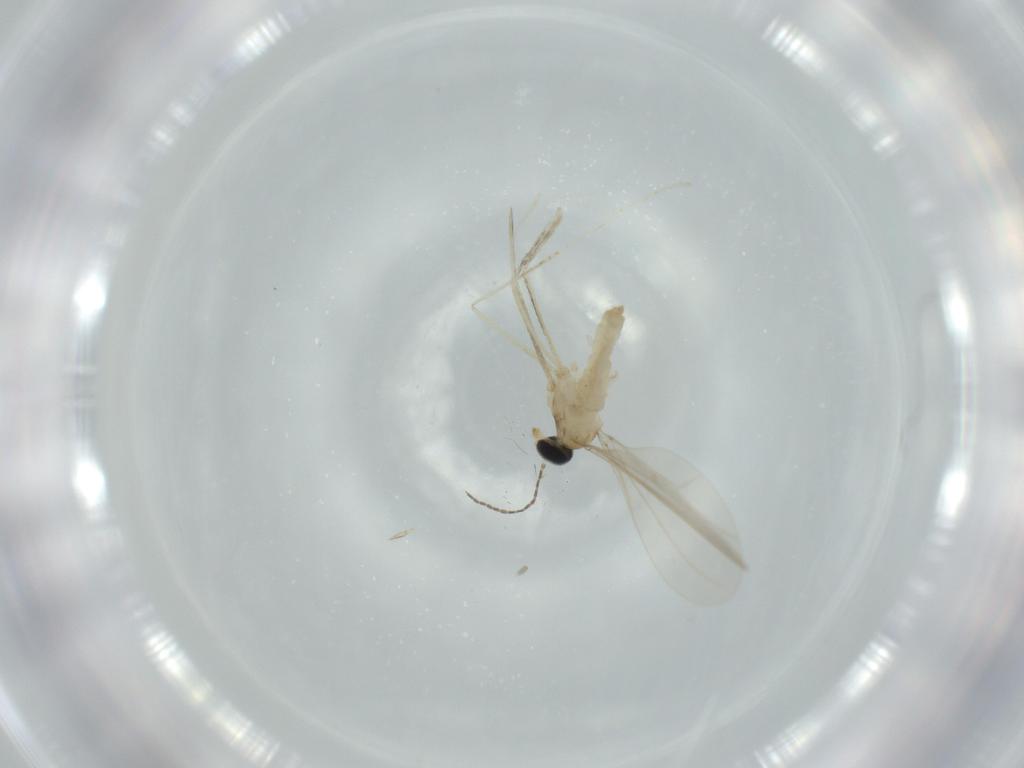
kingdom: Animalia
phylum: Arthropoda
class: Insecta
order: Diptera
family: Cecidomyiidae
